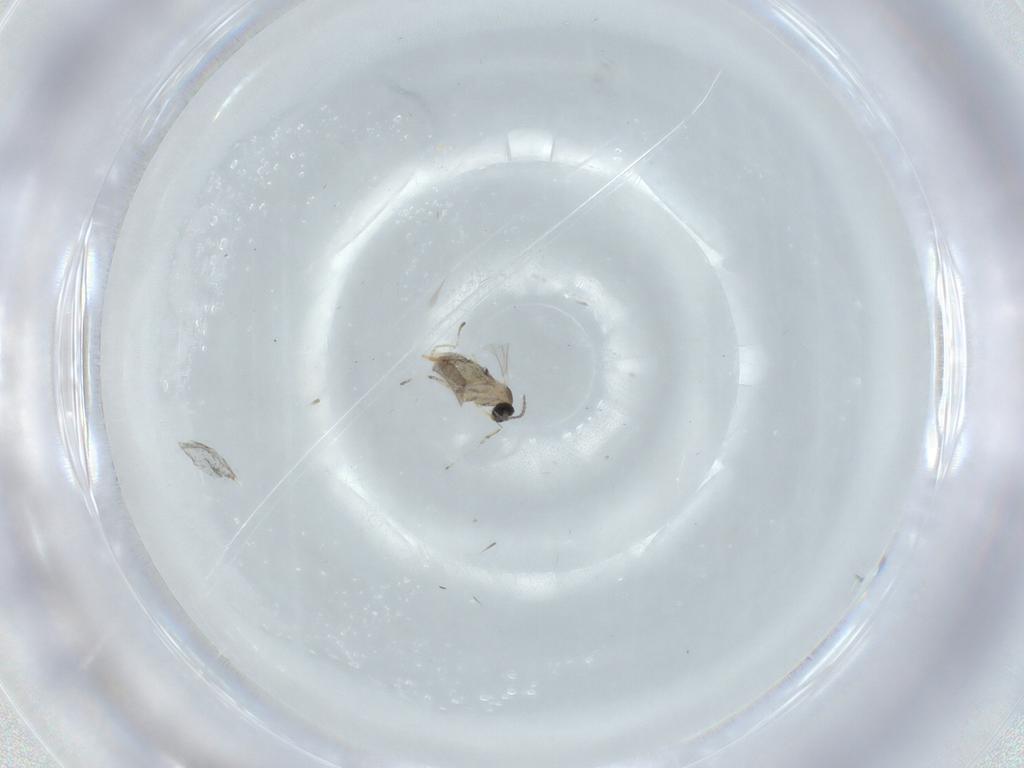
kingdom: Animalia
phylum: Arthropoda
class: Insecta
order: Diptera
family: Cecidomyiidae
